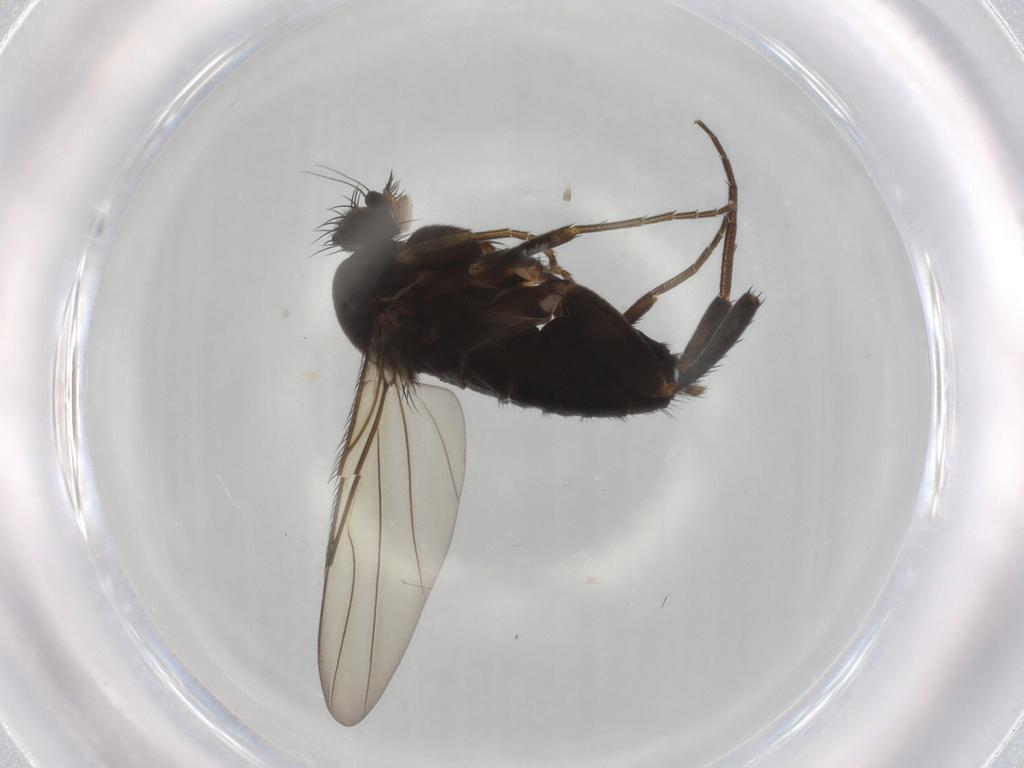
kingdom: Animalia
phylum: Arthropoda
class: Insecta
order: Diptera
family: Phoridae
